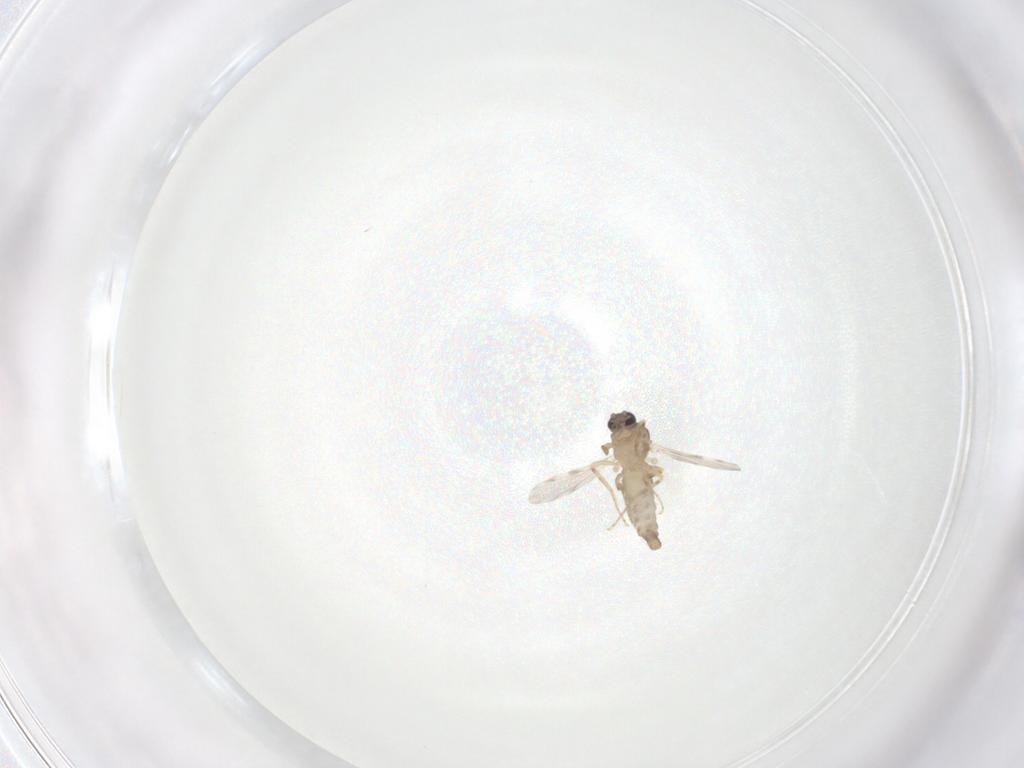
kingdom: Animalia
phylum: Arthropoda
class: Insecta
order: Diptera
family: Ceratopogonidae
